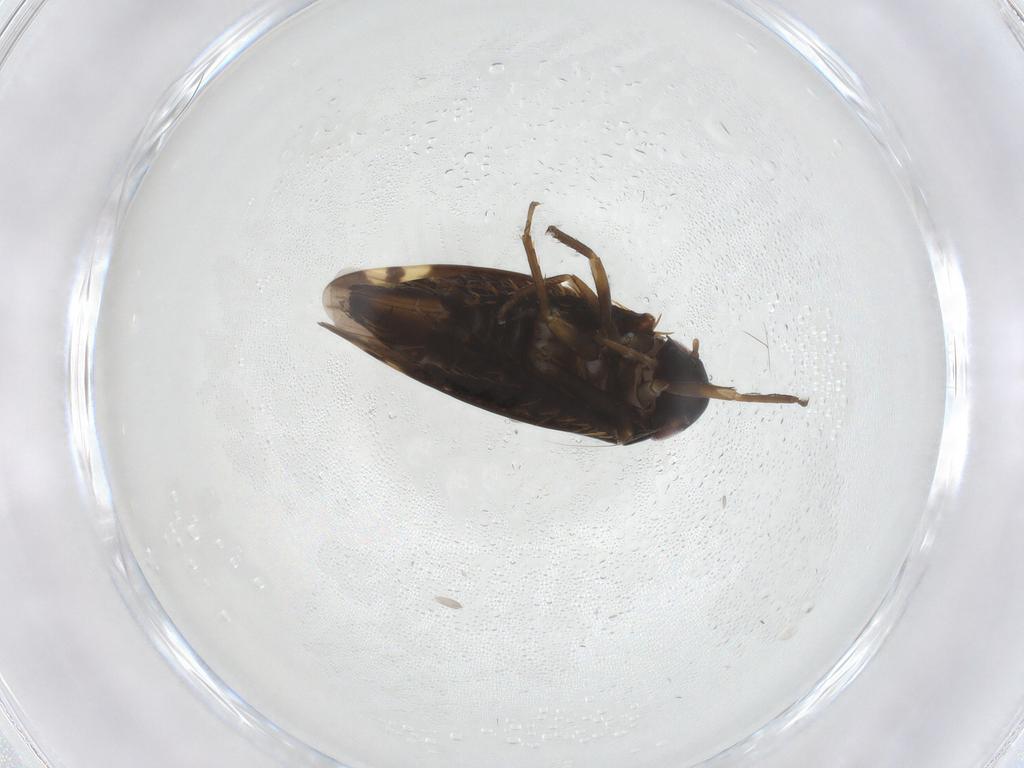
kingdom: Animalia
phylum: Arthropoda
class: Insecta
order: Hemiptera
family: Cicadellidae
